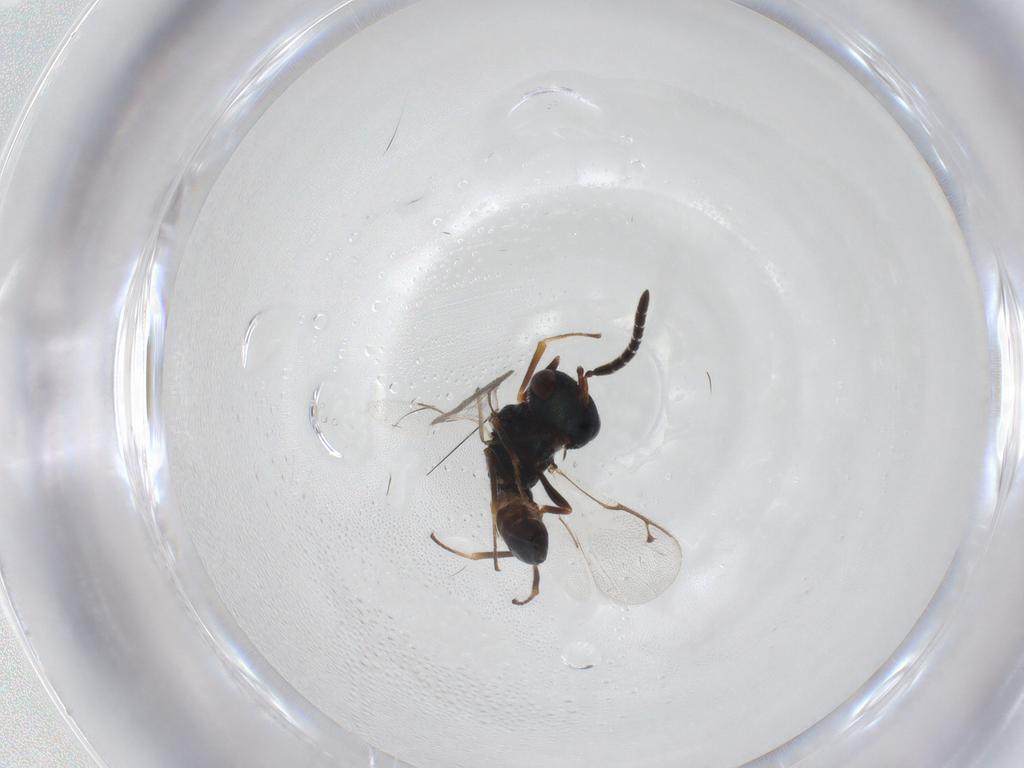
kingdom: Animalia
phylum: Arthropoda
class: Insecta
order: Hymenoptera
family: Agaonidae
